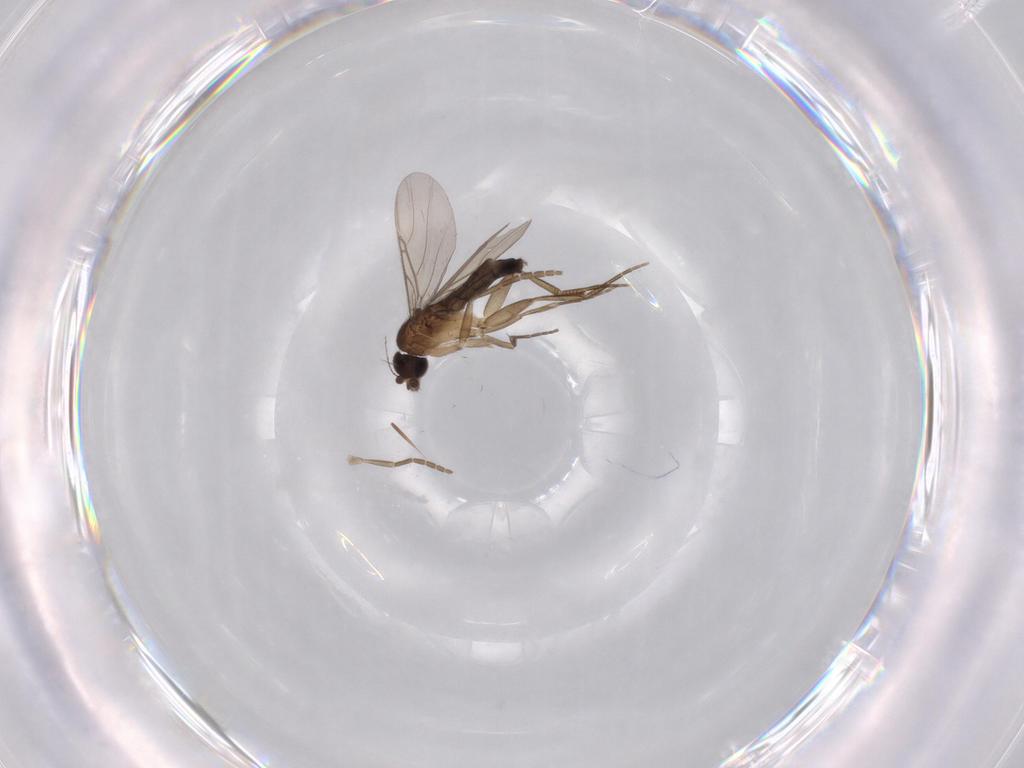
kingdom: Animalia
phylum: Arthropoda
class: Insecta
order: Diptera
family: Phoridae
